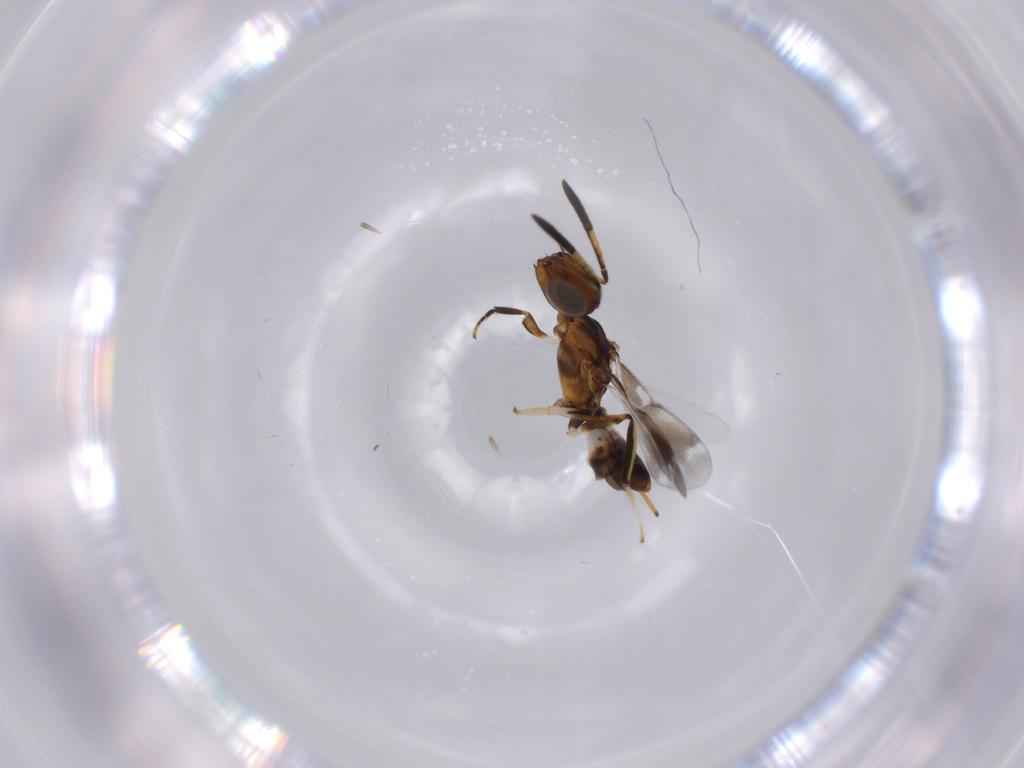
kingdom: Animalia
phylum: Arthropoda
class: Insecta
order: Hymenoptera
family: Eupelmidae
